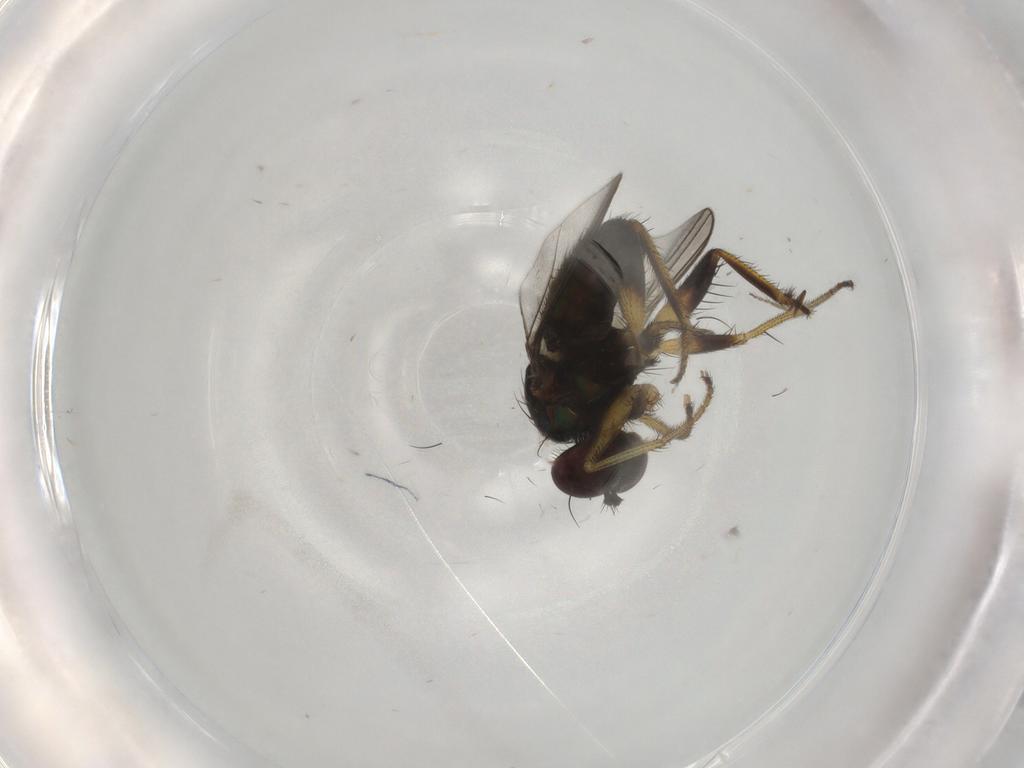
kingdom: Animalia
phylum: Arthropoda
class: Insecta
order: Diptera
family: Dolichopodidae
